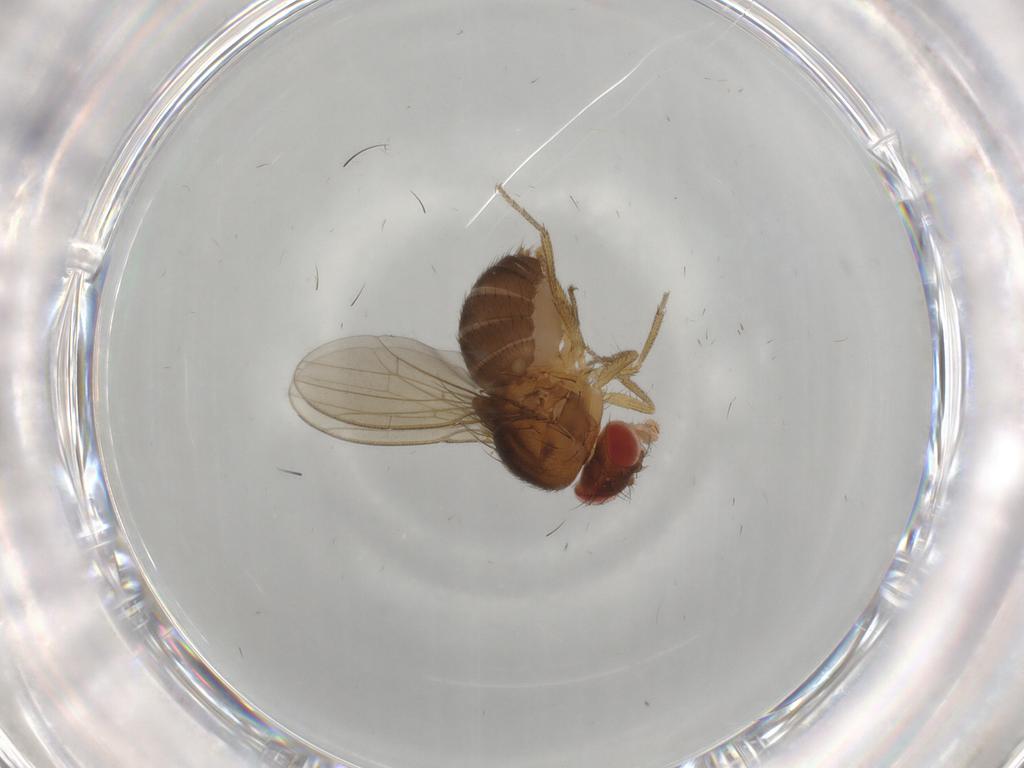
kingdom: Animalia
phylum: Arthropoda
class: Insecta
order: Diptera
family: Drosophilidae
